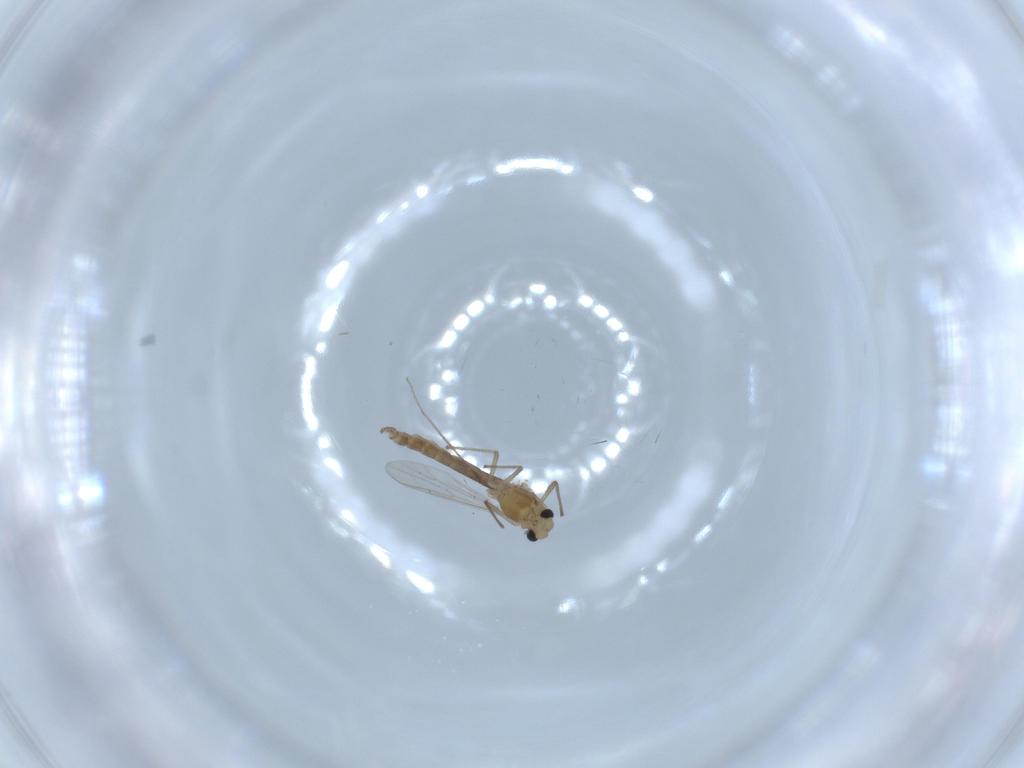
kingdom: Animalia
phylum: Arthropoda
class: Insecta
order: Diptera
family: Chironomidae
